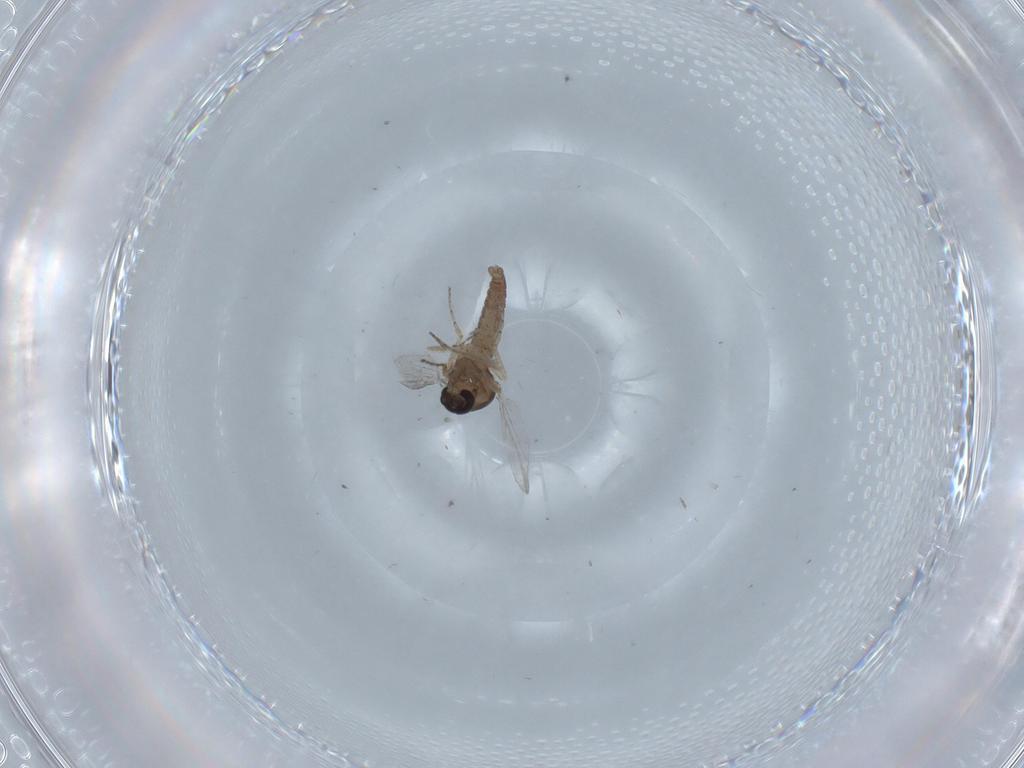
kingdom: Animalia
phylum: Arthropoda
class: Insecta
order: Diptera
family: Ceratopogonidae
